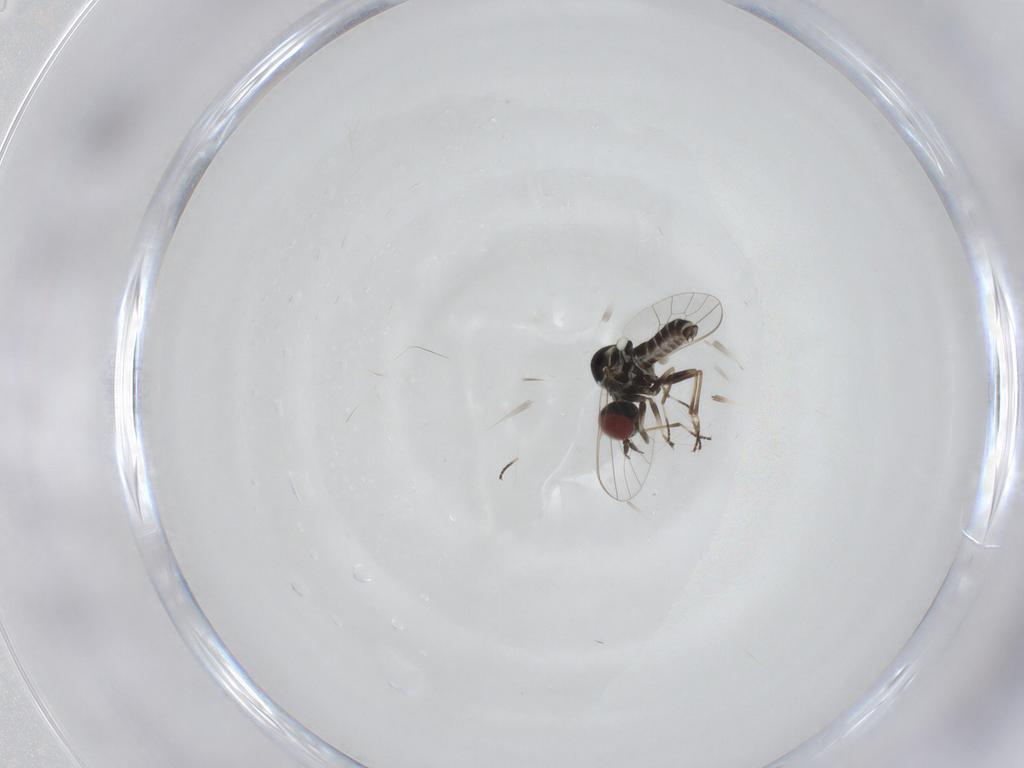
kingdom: Animalia
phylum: Arthropoda
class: Insecta
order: Diptera
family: Mythicomyiidae
